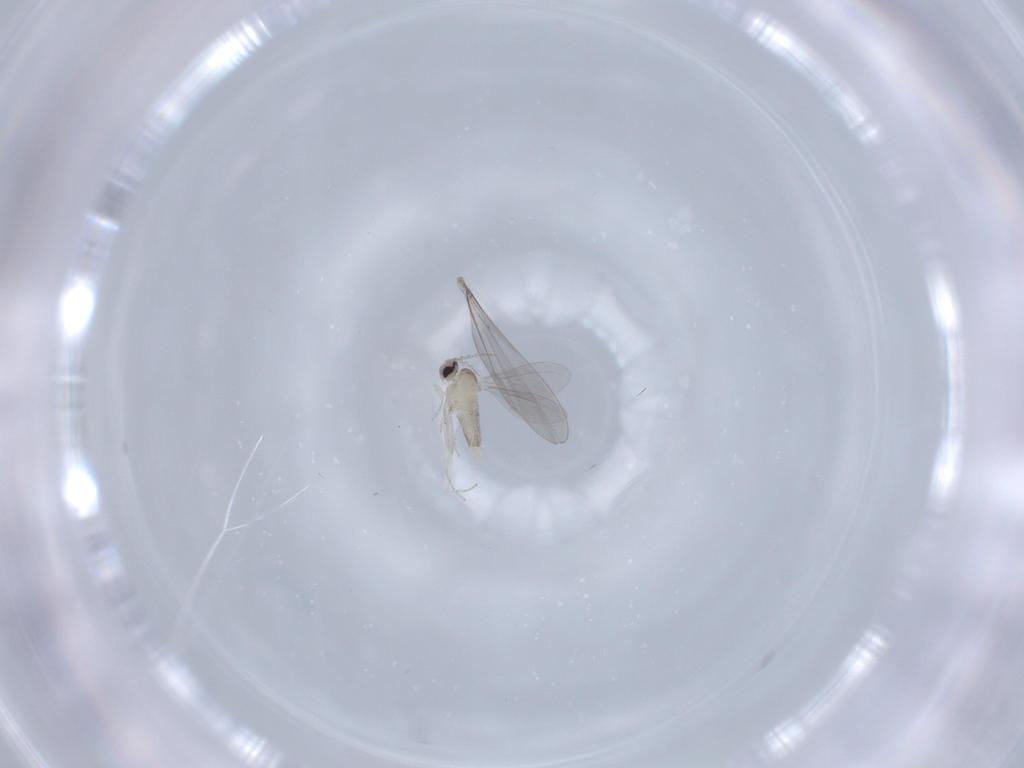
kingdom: Animalia
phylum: Arthropoda
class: Insecta
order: Diptera
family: Cecidomyiidae
